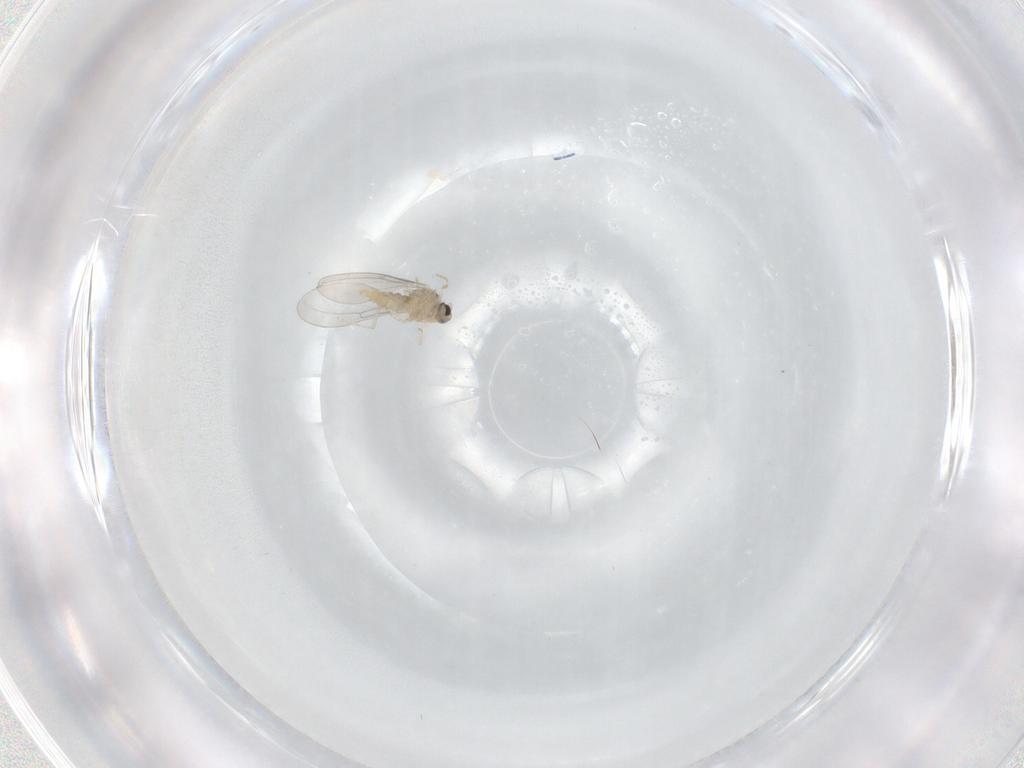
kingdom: Animalia
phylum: Arthropoda
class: Insecta
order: Diptera
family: Cecidomyiidae
